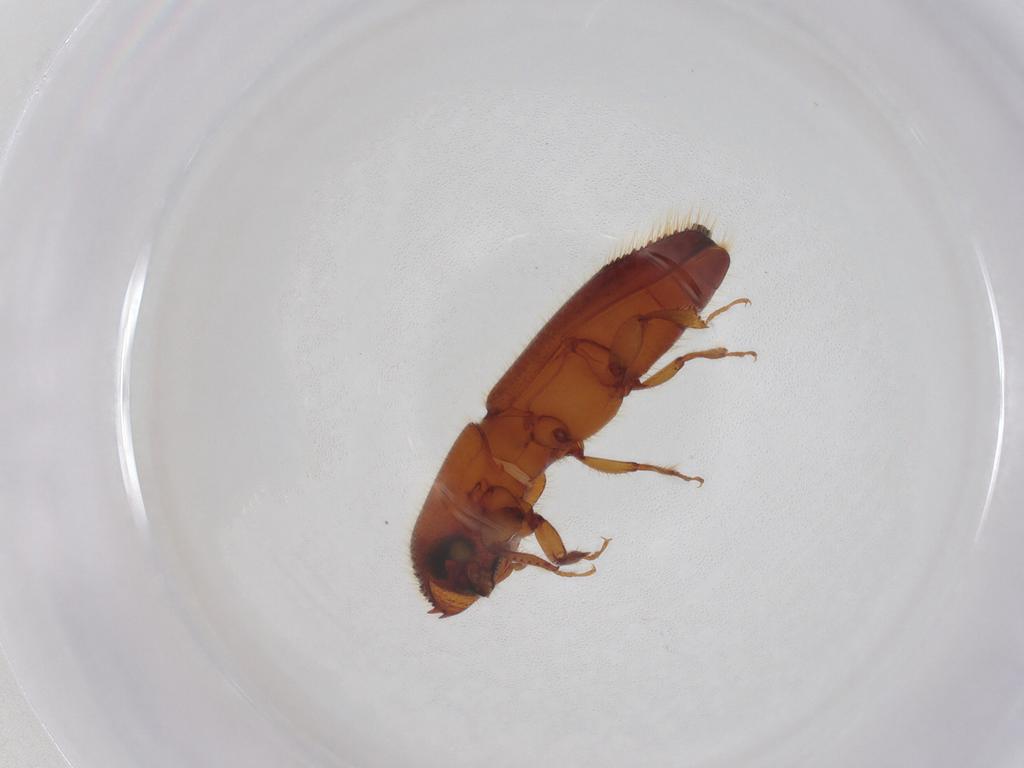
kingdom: Animalia
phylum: Arthropoda
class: Insecta
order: Coleoptera
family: Curculionidae
